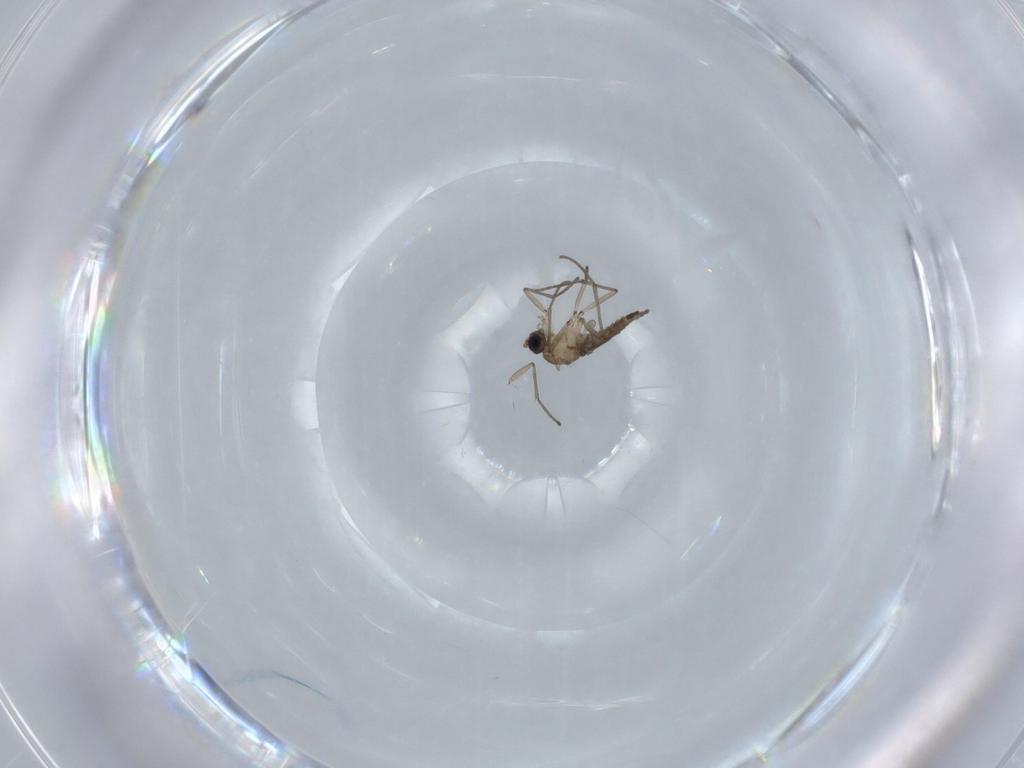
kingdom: Animalia
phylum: Arthropoda
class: Insecta
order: Diptera
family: Sciaridae
